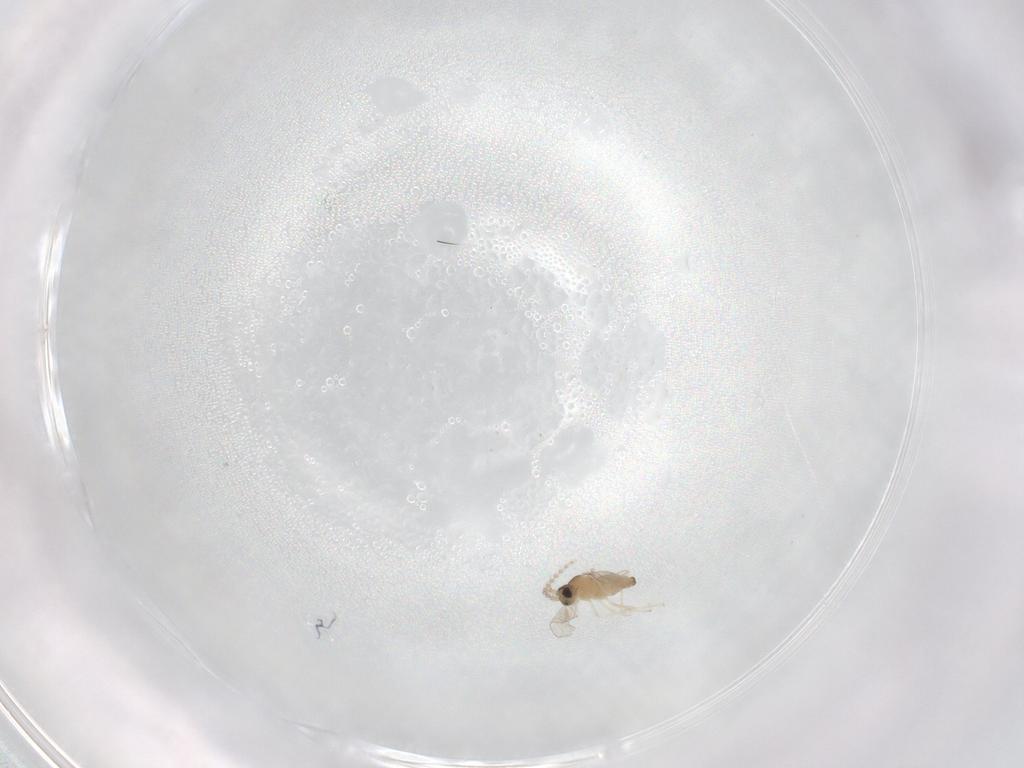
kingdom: Animalia
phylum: Arthropoda
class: Insecta
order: Diptera
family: Cecidomyiidae
